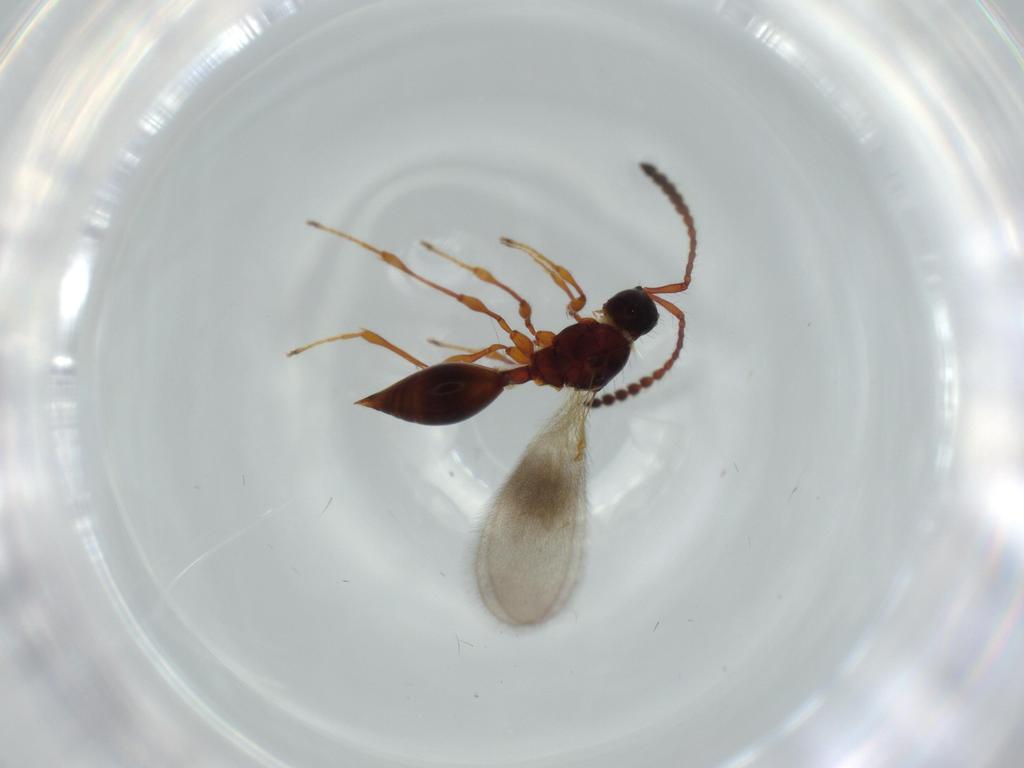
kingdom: Animalia
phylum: Arthropoda
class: Insecta
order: Hymenoptera
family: Diapriidae
